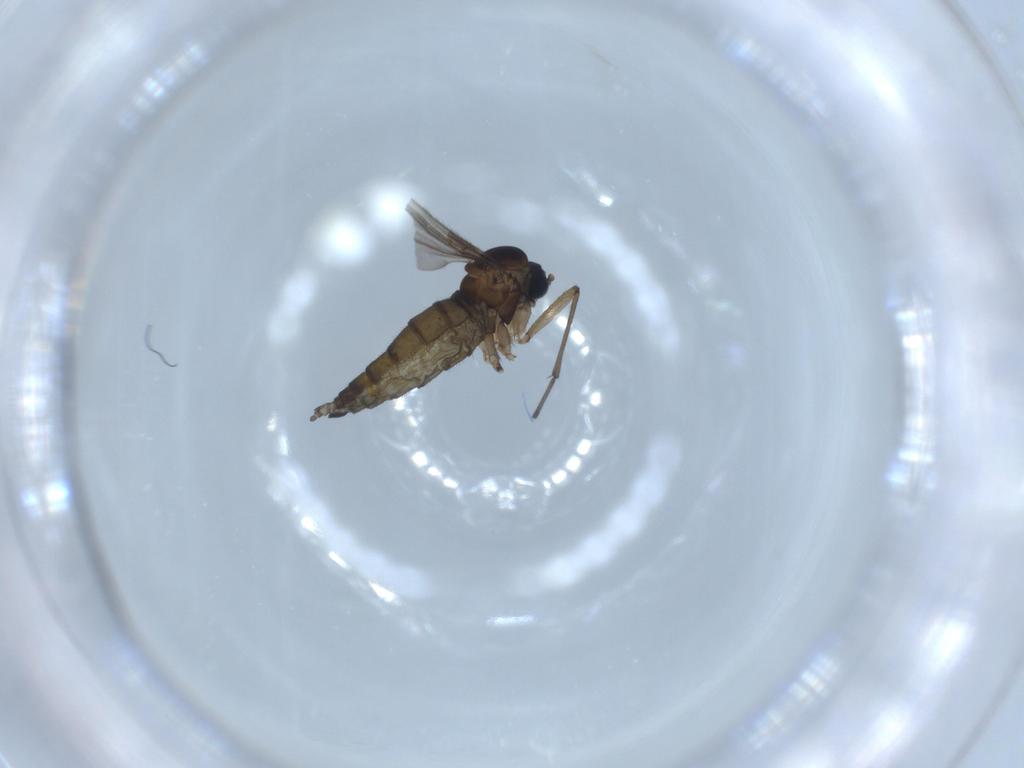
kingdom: Animalia
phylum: Arthropoda
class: Insecta
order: Diptera
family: Sciaridae
